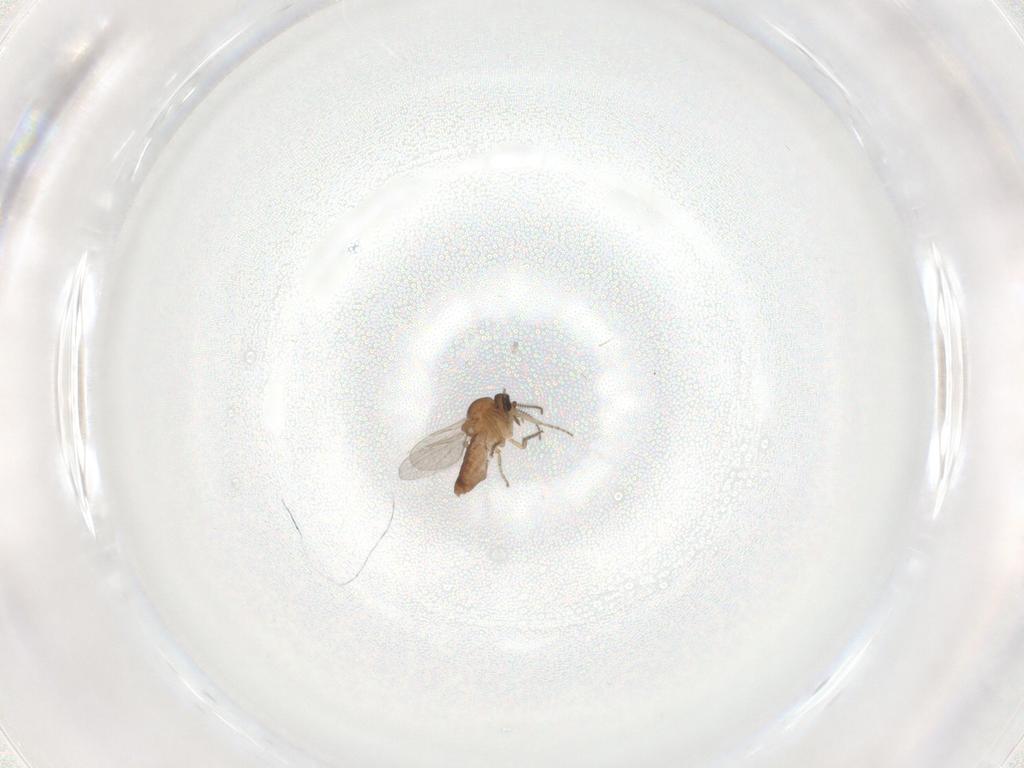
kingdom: Animalia
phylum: Arthropoda
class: Insecta
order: Diptera
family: Ceratopogonidae
